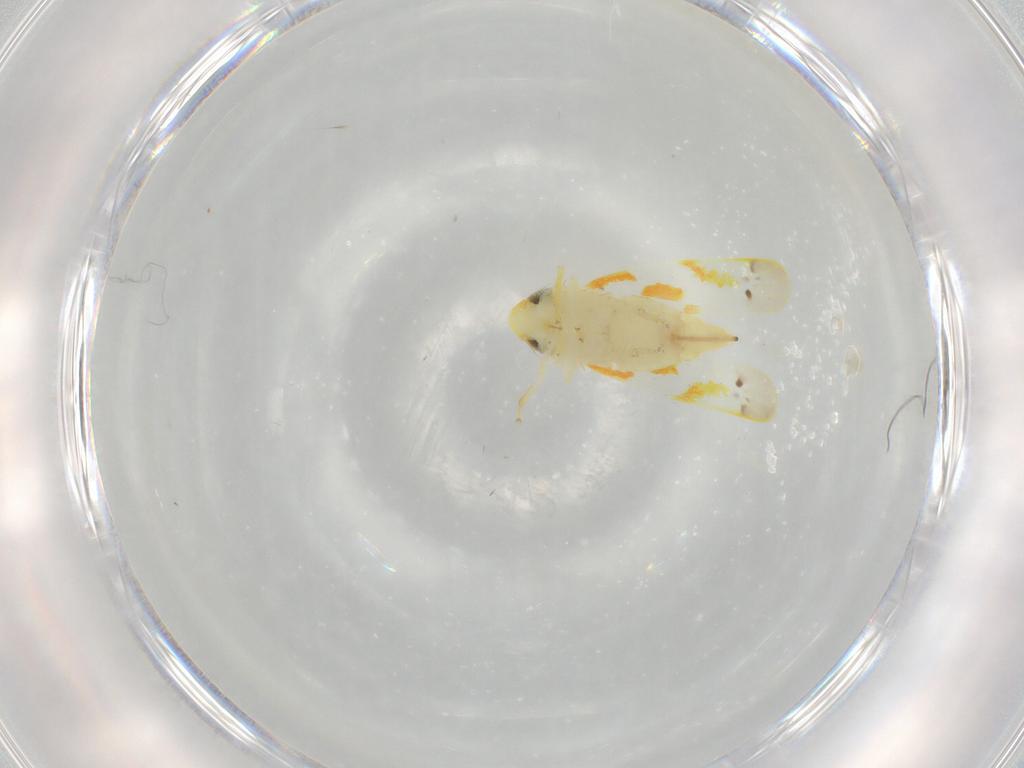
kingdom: Animalia
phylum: Arthropoda
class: Insecta
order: Hemiptera
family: Cicadellidae
